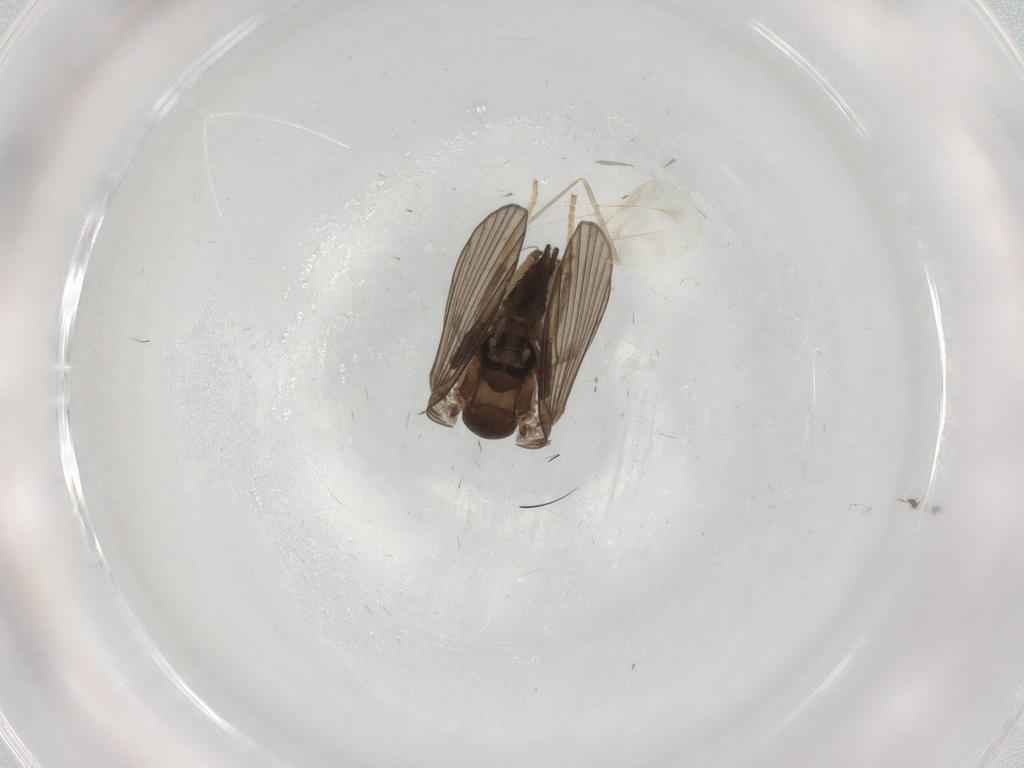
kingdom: Animalia
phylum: Arthropoda
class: Insecta
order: Diptera
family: Psychodidae
